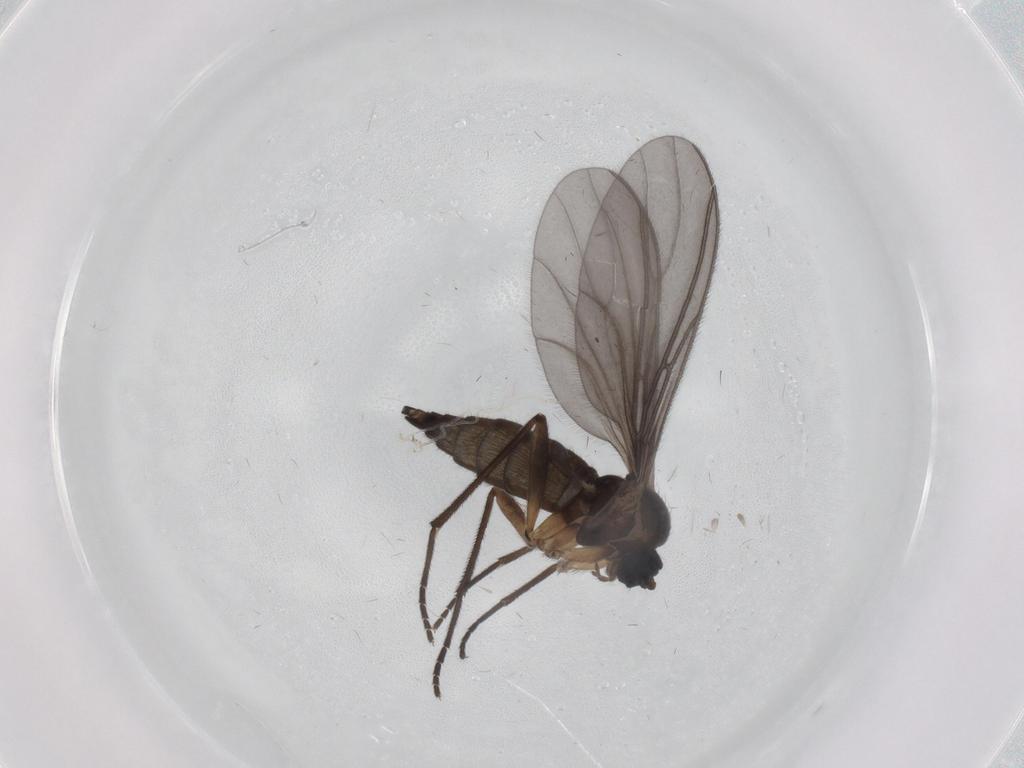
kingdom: Animalia
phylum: Arthropoda
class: Insecta
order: Diptera
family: Sciaridae
